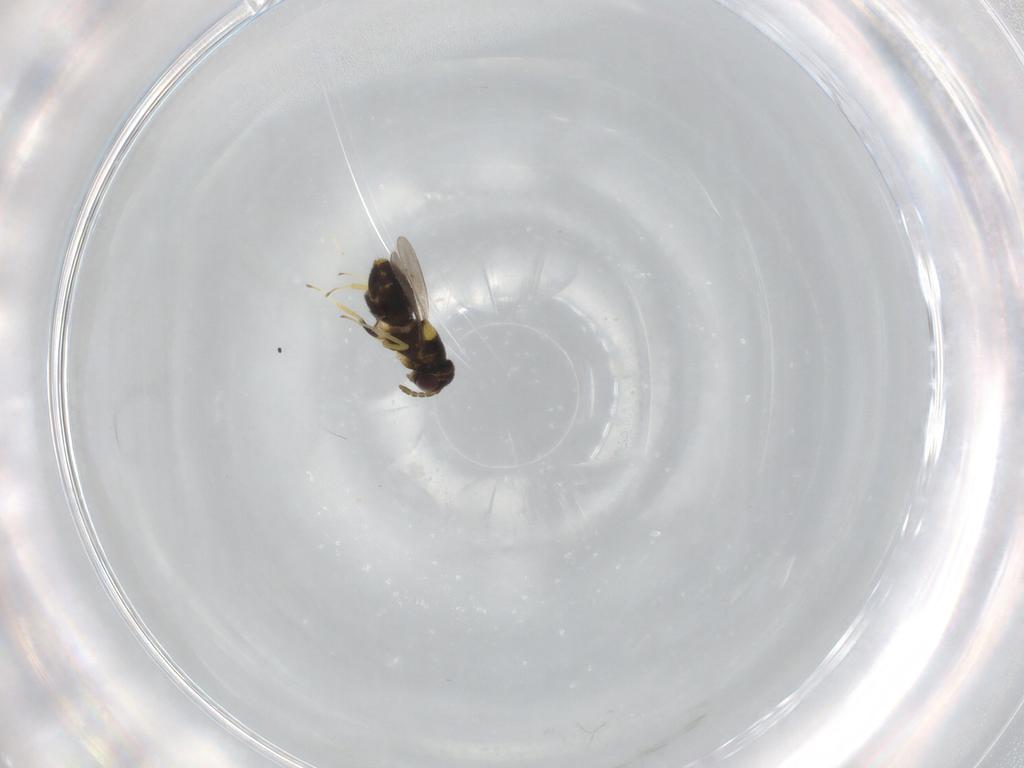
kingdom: Animalia
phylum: Arthropoda
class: Insecta
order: Hymenoptera
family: Aphelinidae
